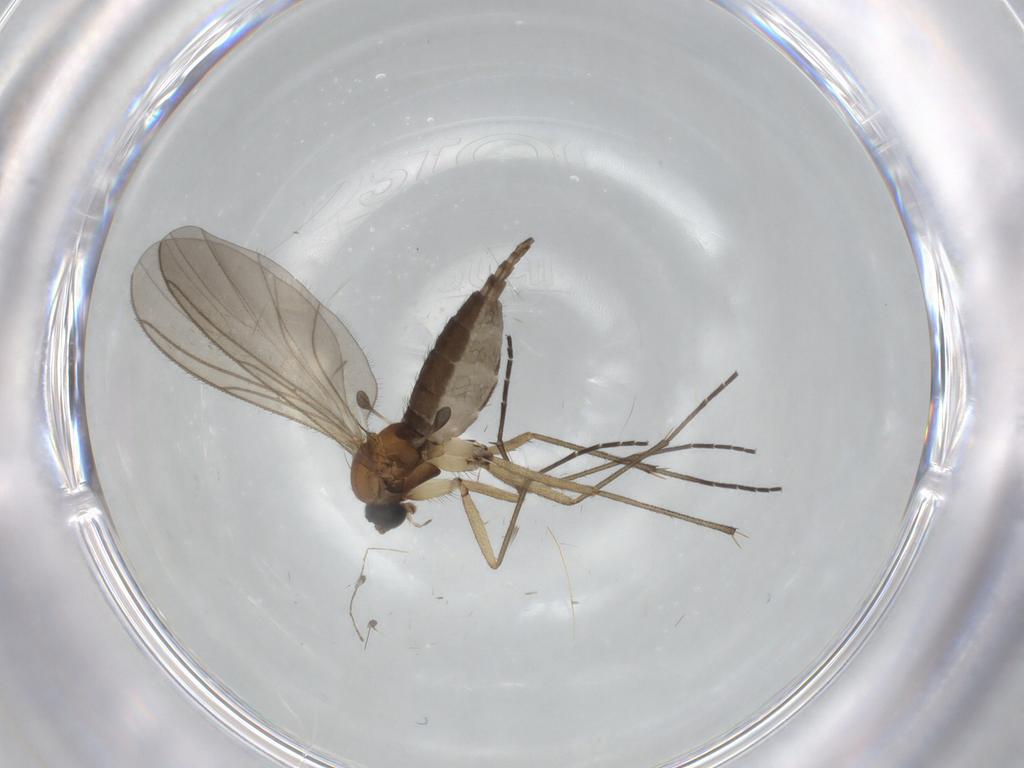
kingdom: Animalia
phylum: Arthropoda
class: Insecta
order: Diptera
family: Sciaridae
